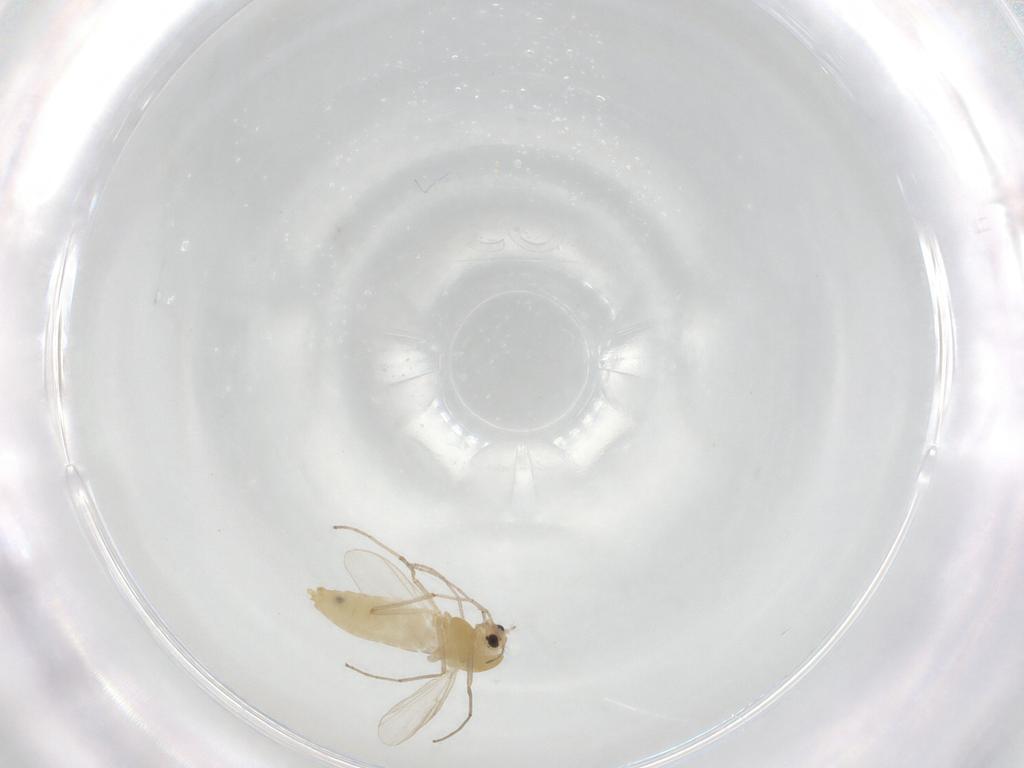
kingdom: Animalia
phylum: Arthropoda
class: Insecta
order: Diptera
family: Chironomidae
